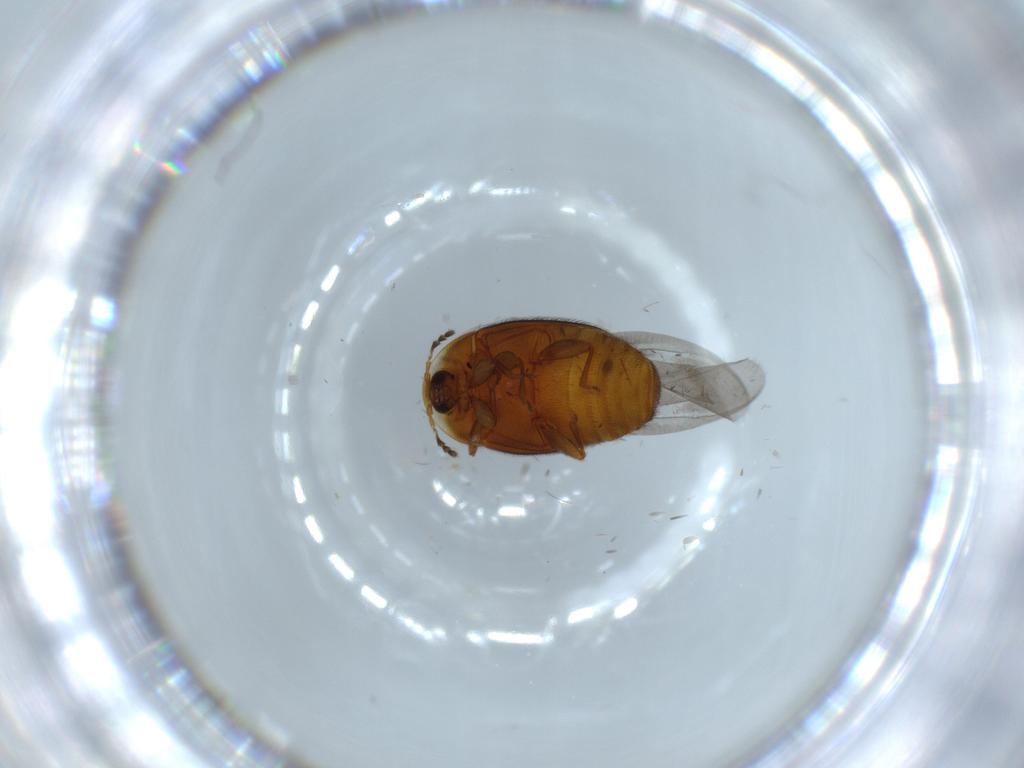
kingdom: Animalia
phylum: Arthropoda
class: Insecta
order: Coleoptera
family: Corylophidae
